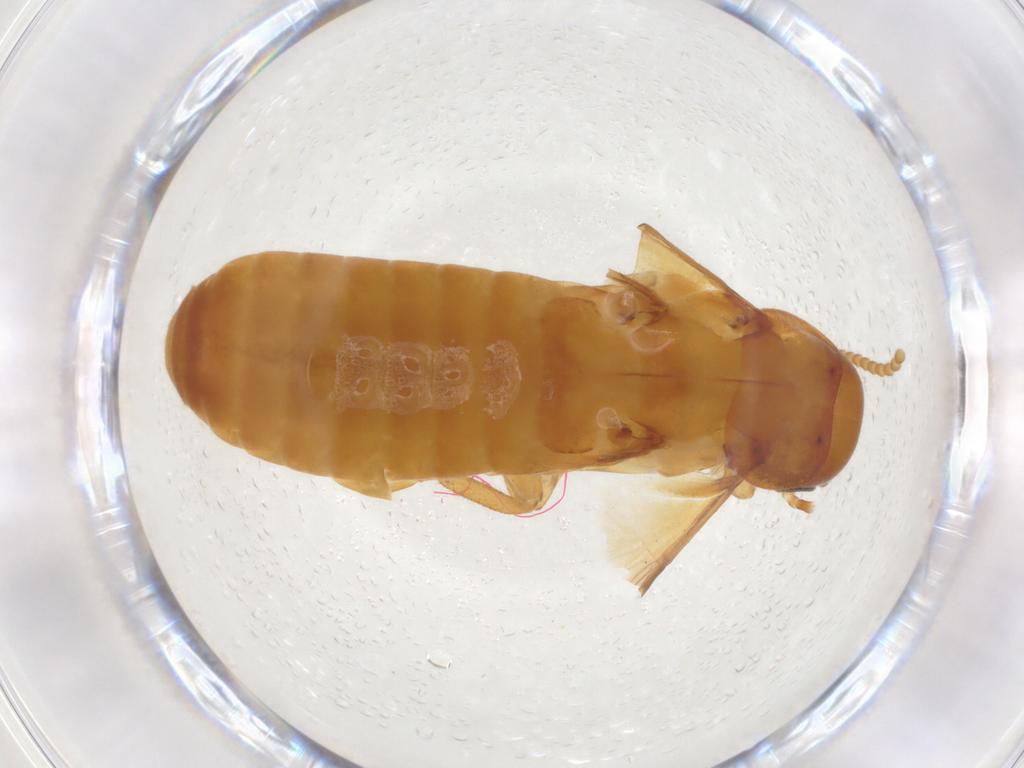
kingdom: Animalia
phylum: Arthropoda
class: Insecta
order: Blattodea
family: Kalotermitidae
